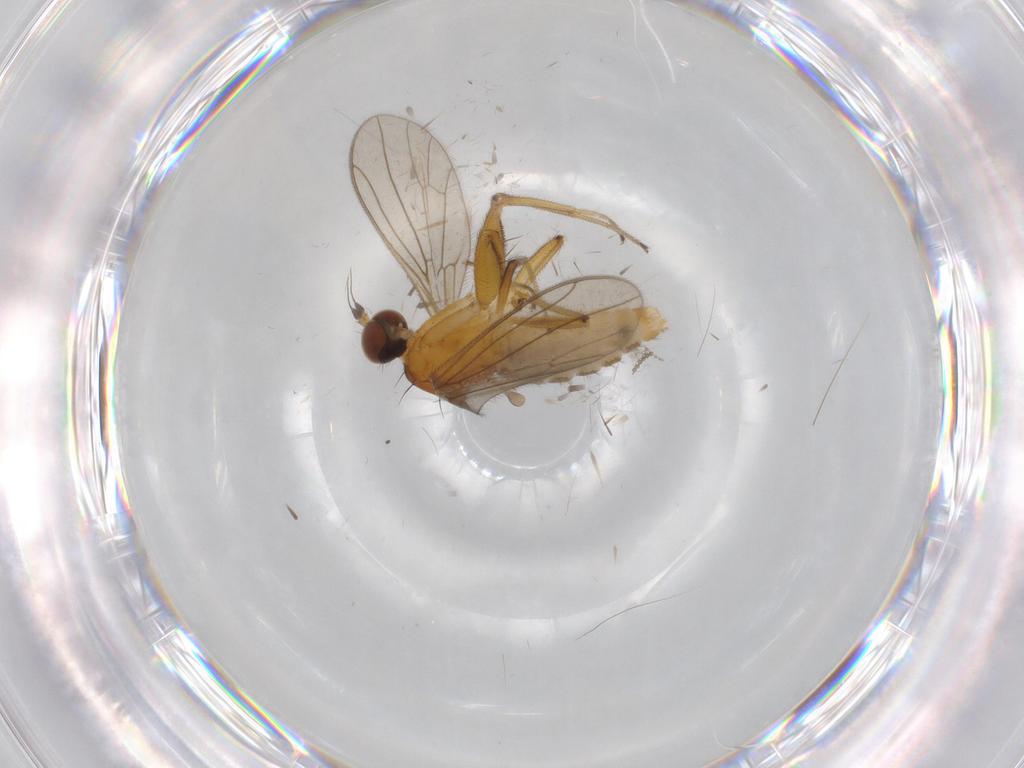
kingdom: Animalia
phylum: Arthropoda
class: Insecta
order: Diptera
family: Empididae
